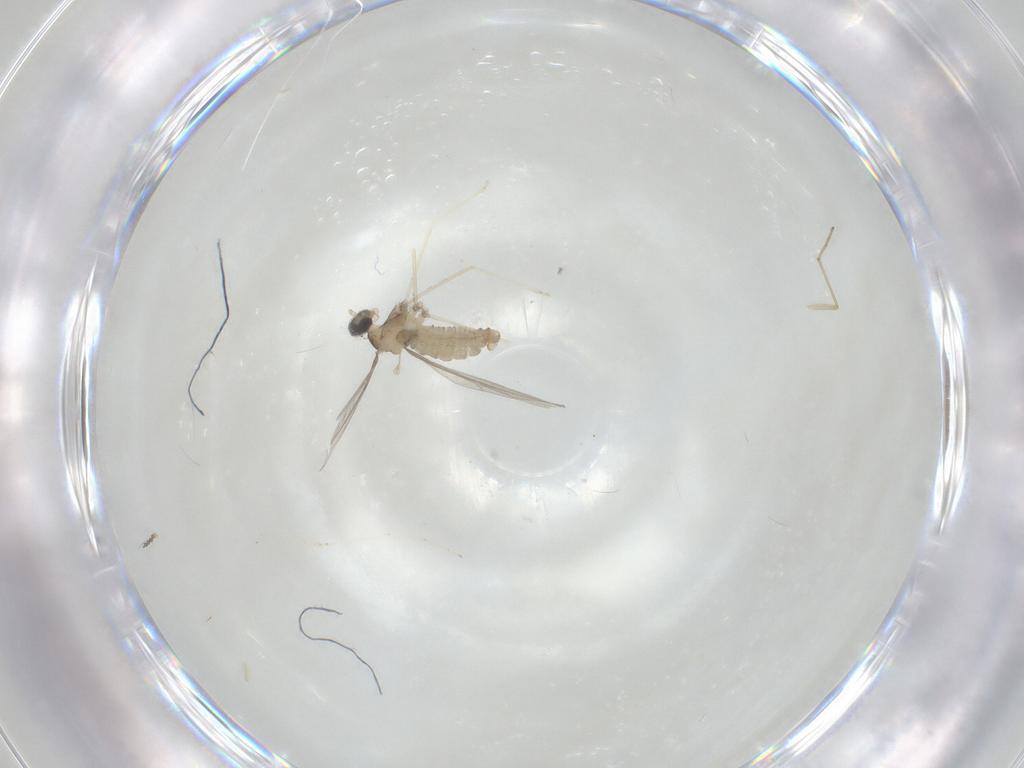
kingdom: Animalia
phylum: Arthropoda
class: Insecta
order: Diptera
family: Cecidomyiidae
